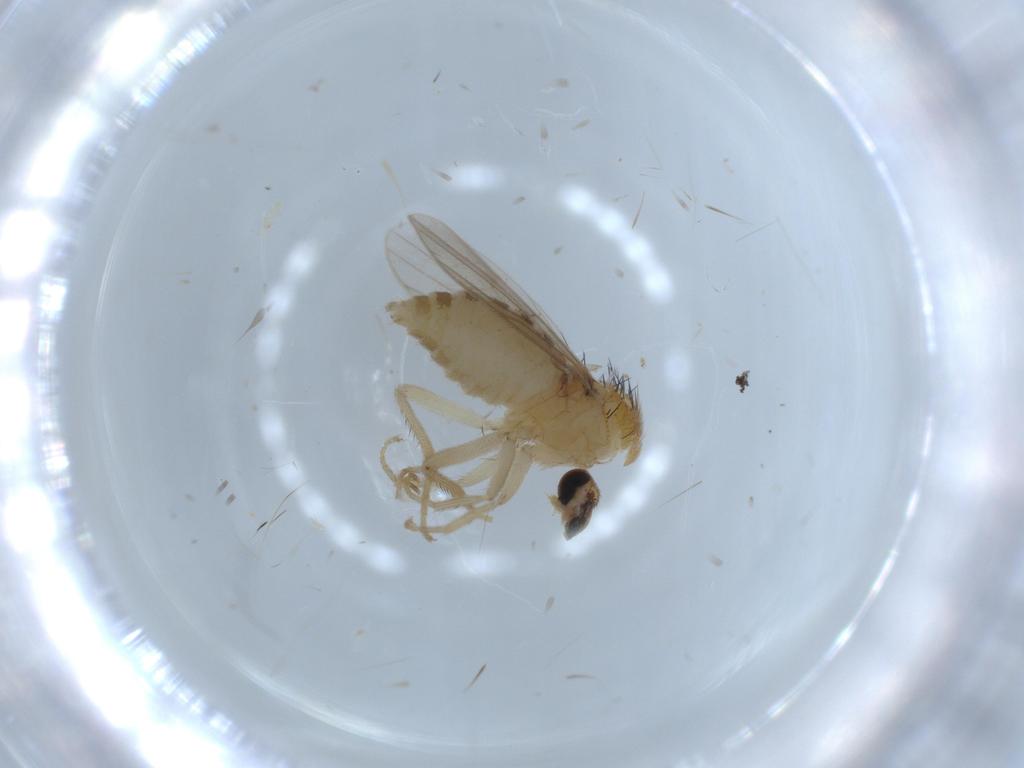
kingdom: Animalia
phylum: Arthropoda
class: Insecta
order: Diptera
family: Hybotidae
